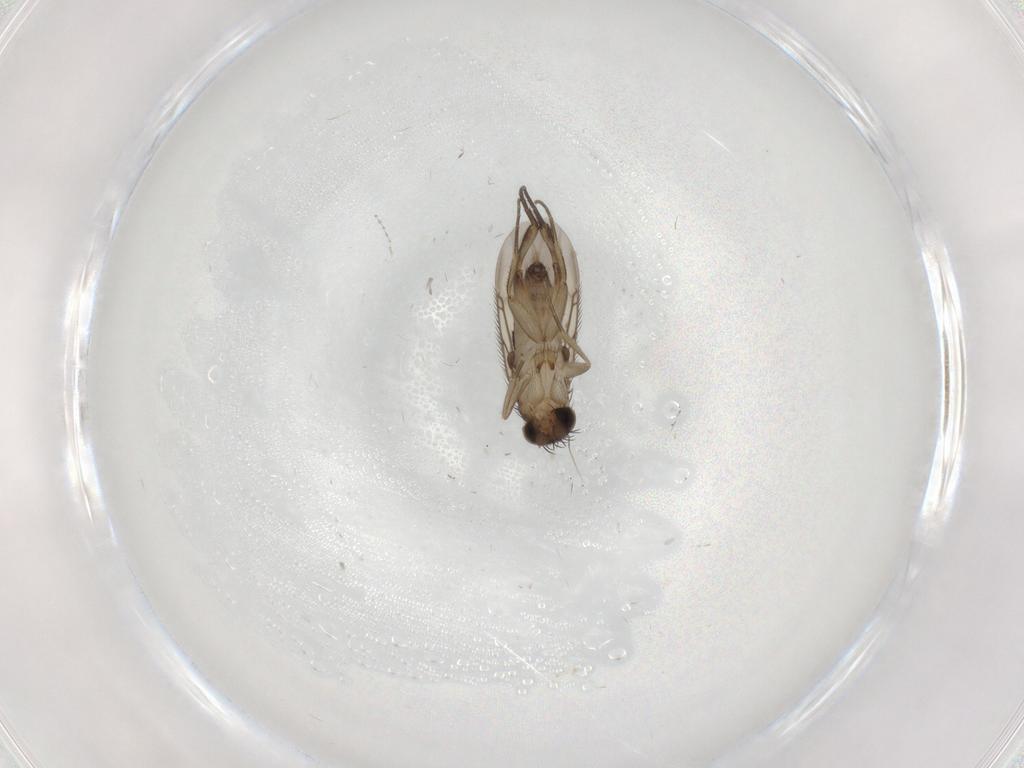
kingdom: Animalia
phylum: Arthropoda
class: Insecta
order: Diptera
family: Phoridae
